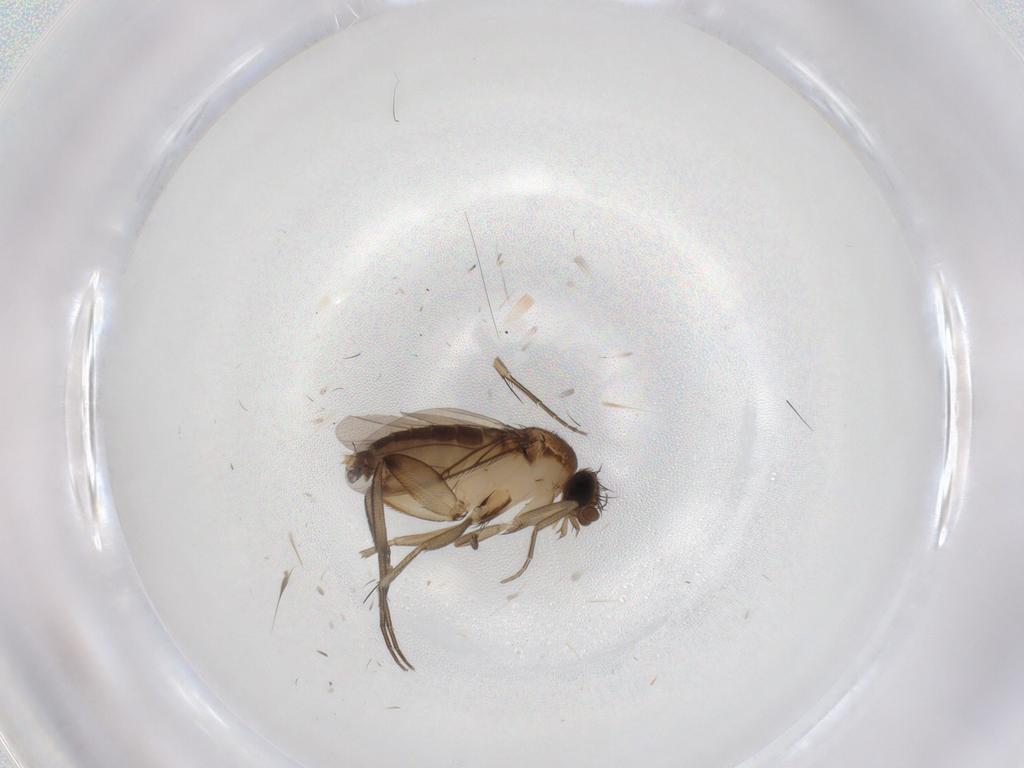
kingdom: Animalia
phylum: Arthropoda
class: Insecta
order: Diptera
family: Phoridae
